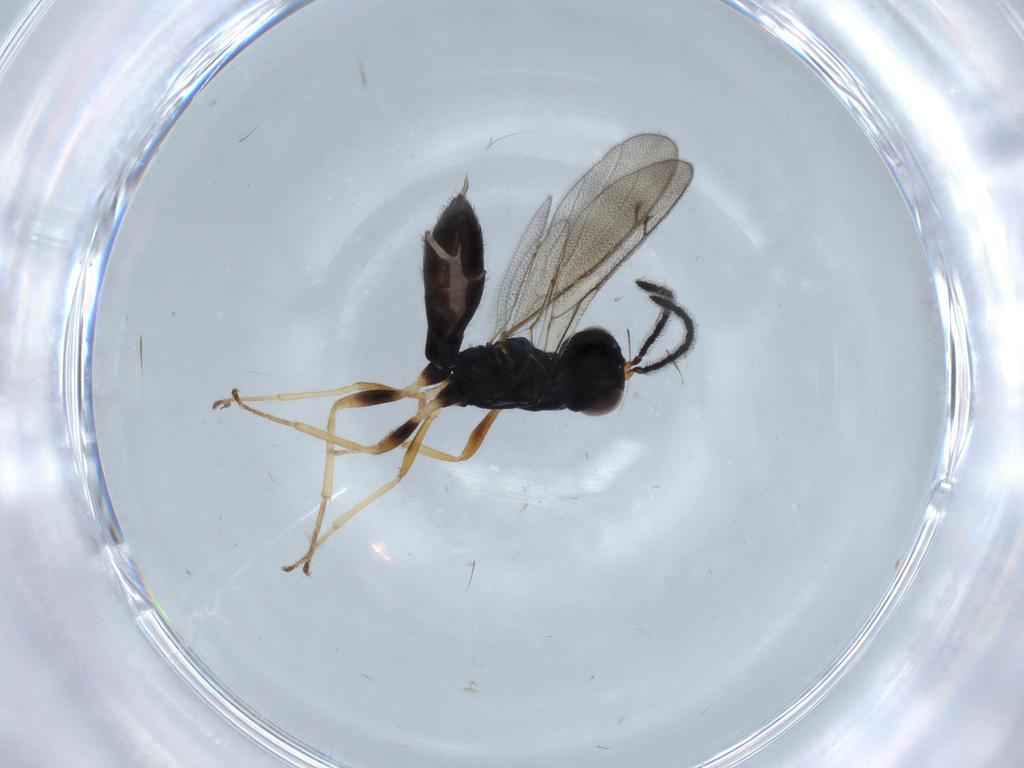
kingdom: Animalia
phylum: Arthropoda
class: Insecta
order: Hymenoptera
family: Pteromalidae
